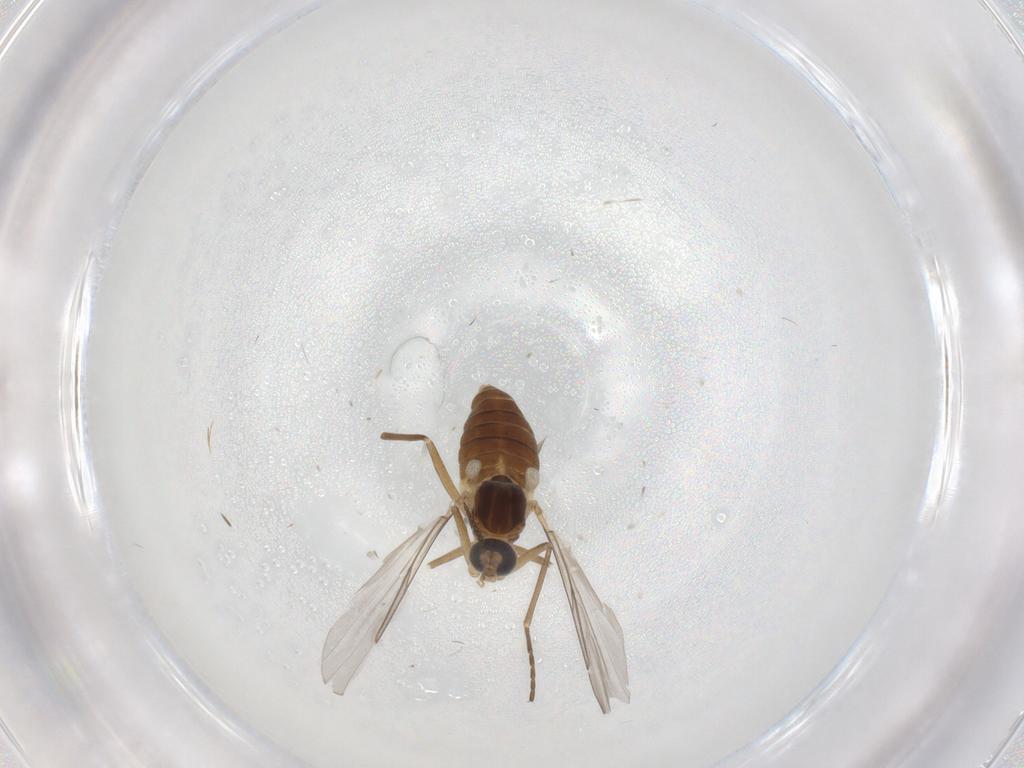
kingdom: Animalia
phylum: Arthropoda
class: Insecta
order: Diptera
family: Cecidomyiidae
